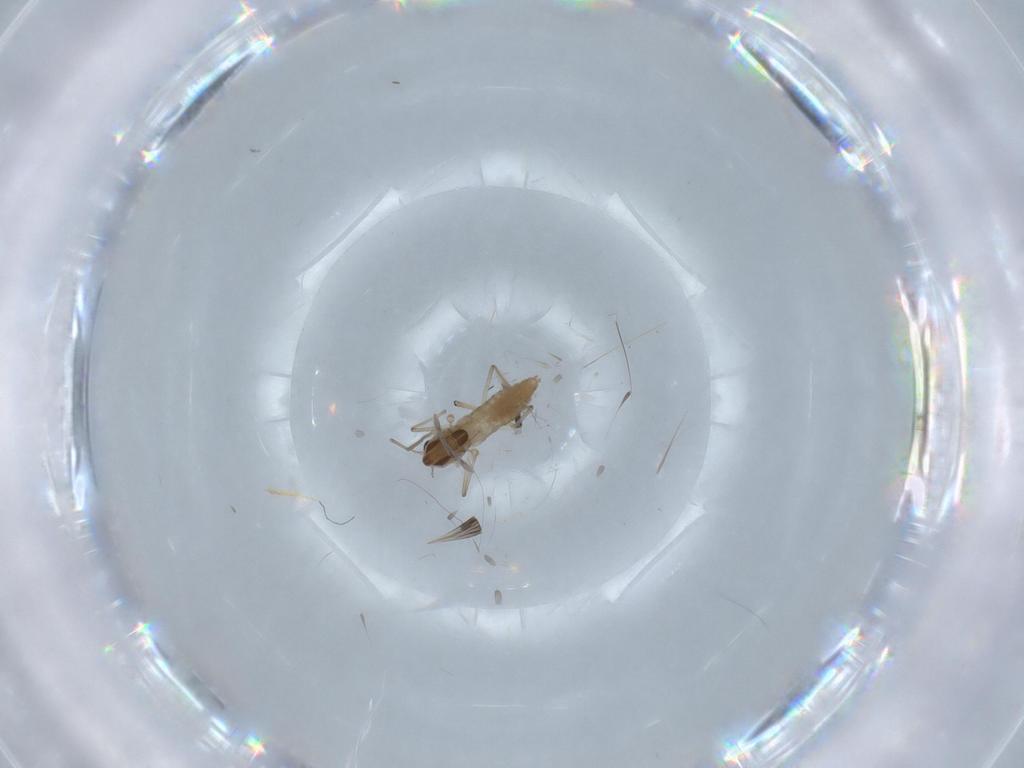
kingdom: Animalia
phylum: Arthropoda
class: Insecta
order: Diptera
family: Chironomidae
